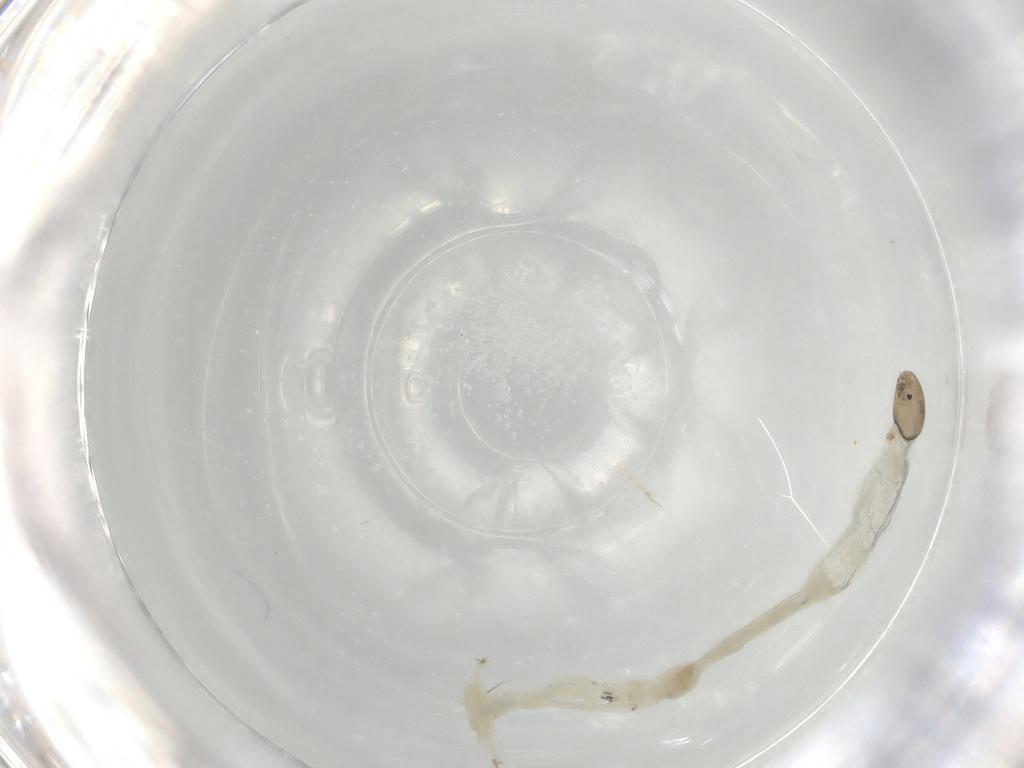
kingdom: Animalia
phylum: Arthropoda
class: Insecta
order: Diptera
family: Chironomidae
